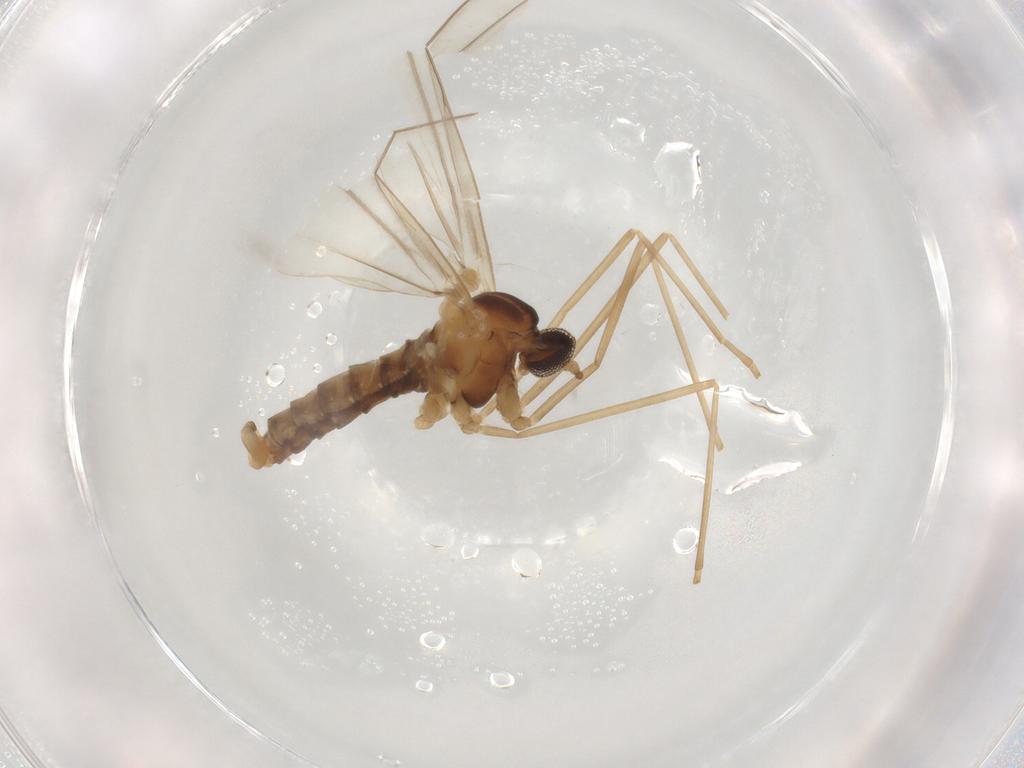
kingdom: Animalia
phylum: Arthropoda
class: Insecta
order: Diptera
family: Cecidomyiidae
